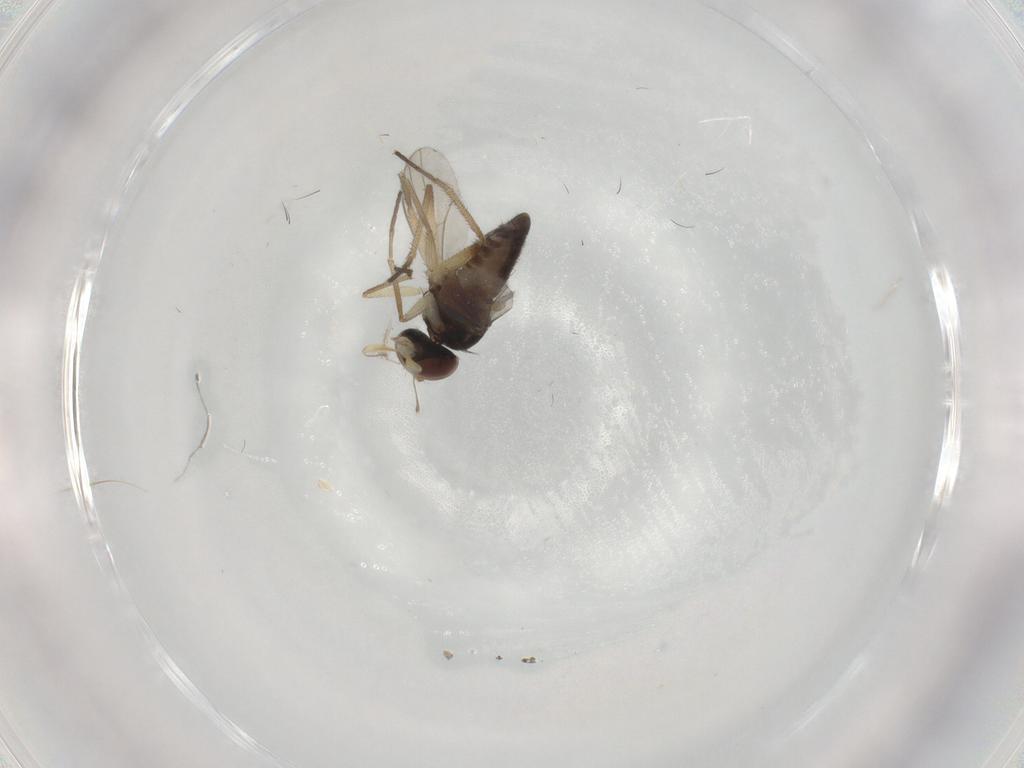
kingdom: Animalia
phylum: Arthropoda
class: Insecta
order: Diptera
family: Dolichopodidae
